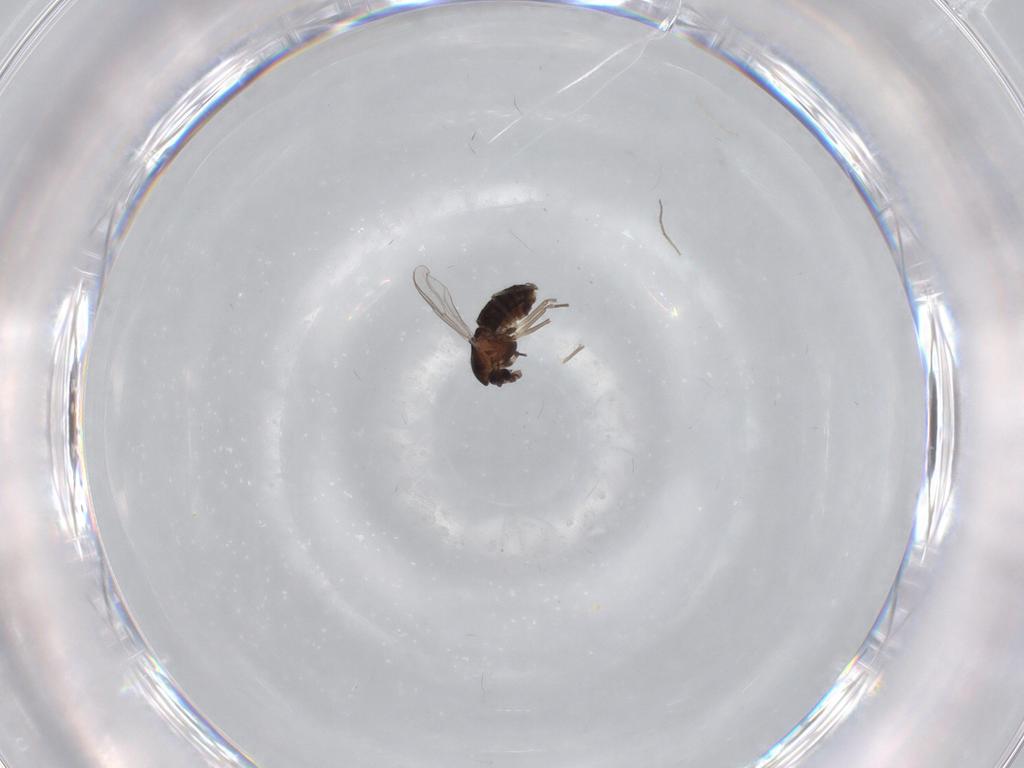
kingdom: Animalia
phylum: Arthropoda
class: Insecta
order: Diptera
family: Chironomidae
